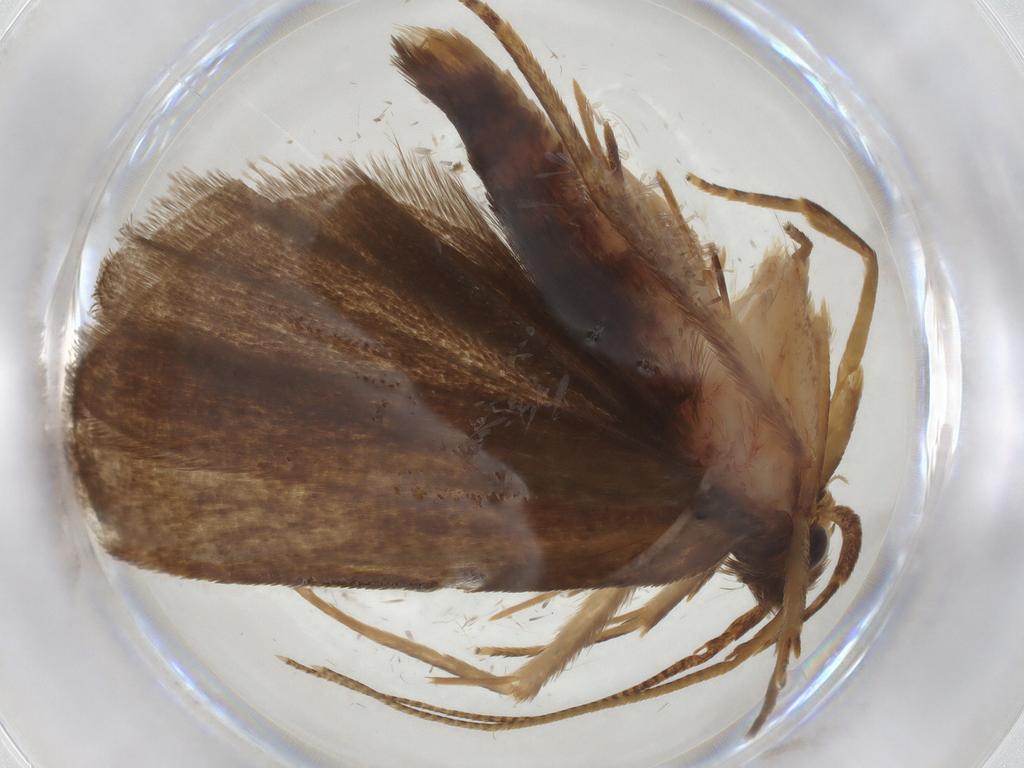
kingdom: Animalia
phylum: Arthropoda
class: Insecta
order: Lepidoptera
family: Autostichidae
